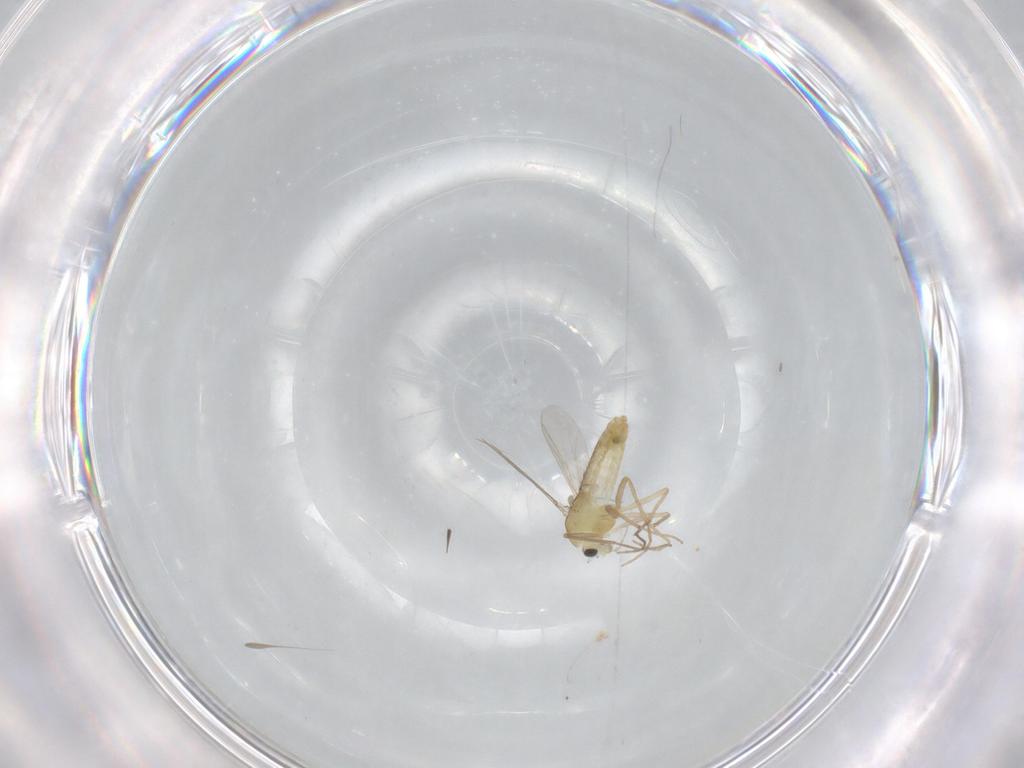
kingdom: Animalia
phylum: Arthropoda
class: Insecta
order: Diptera
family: Chironomidae
